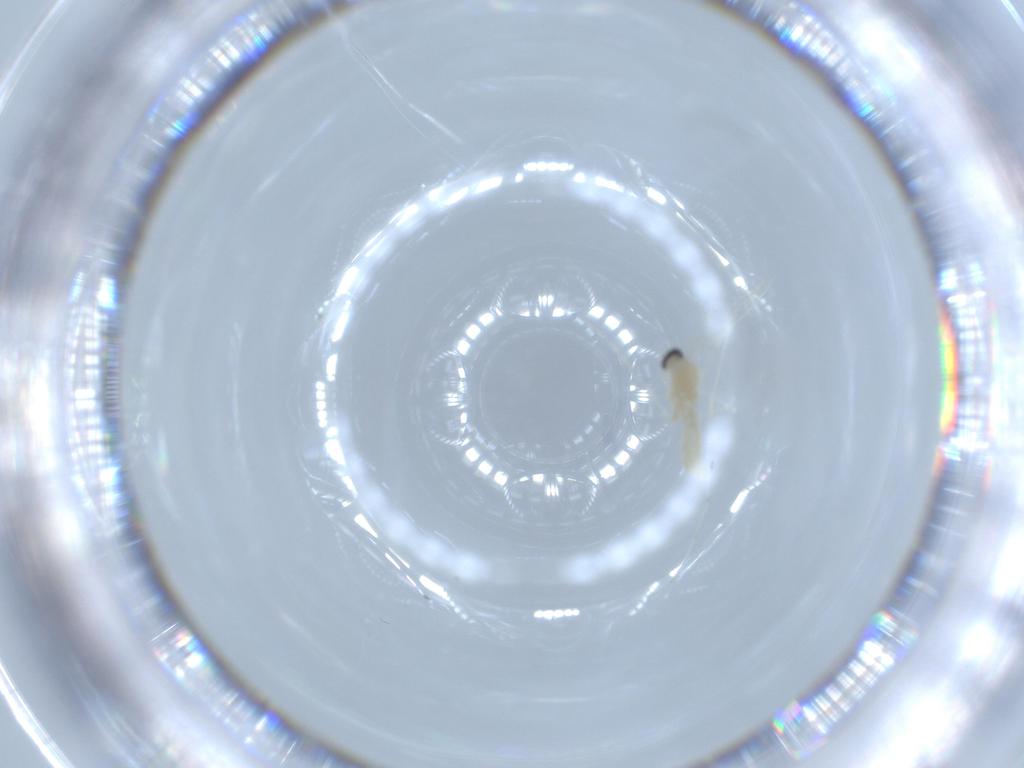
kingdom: Animalia
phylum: Arthropoda
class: Insecta
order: Diptera
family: Cecidomyiidae
